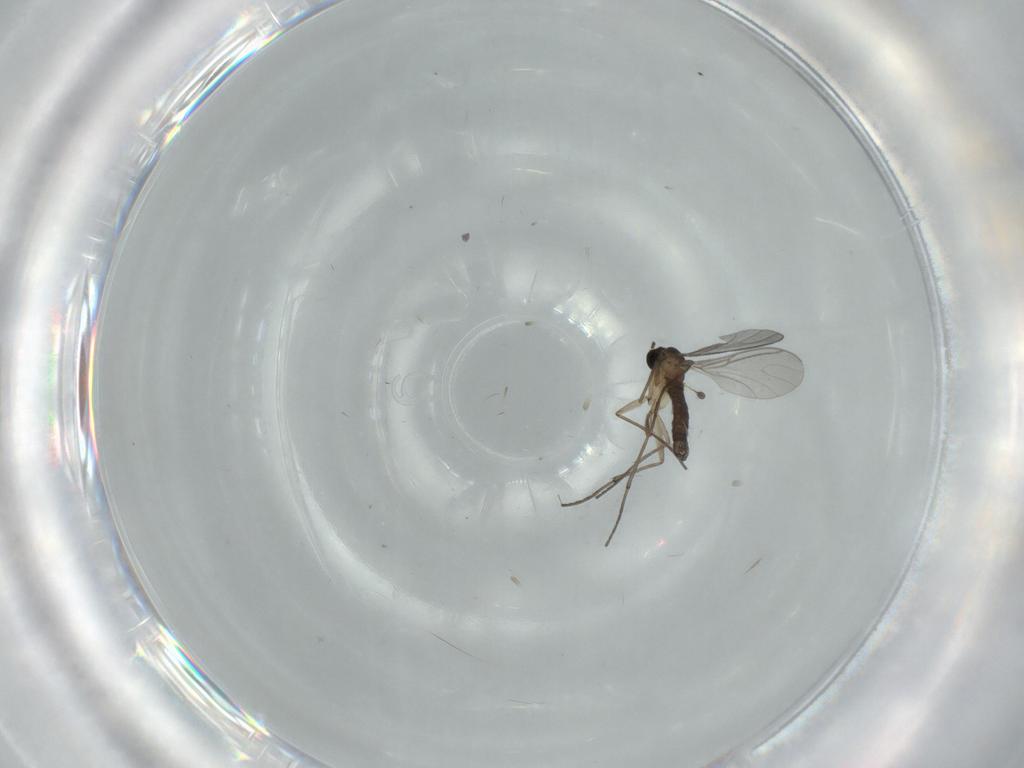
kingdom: Animalia
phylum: Arthropoda
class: Insecta
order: Diptera
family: Sciaridae
